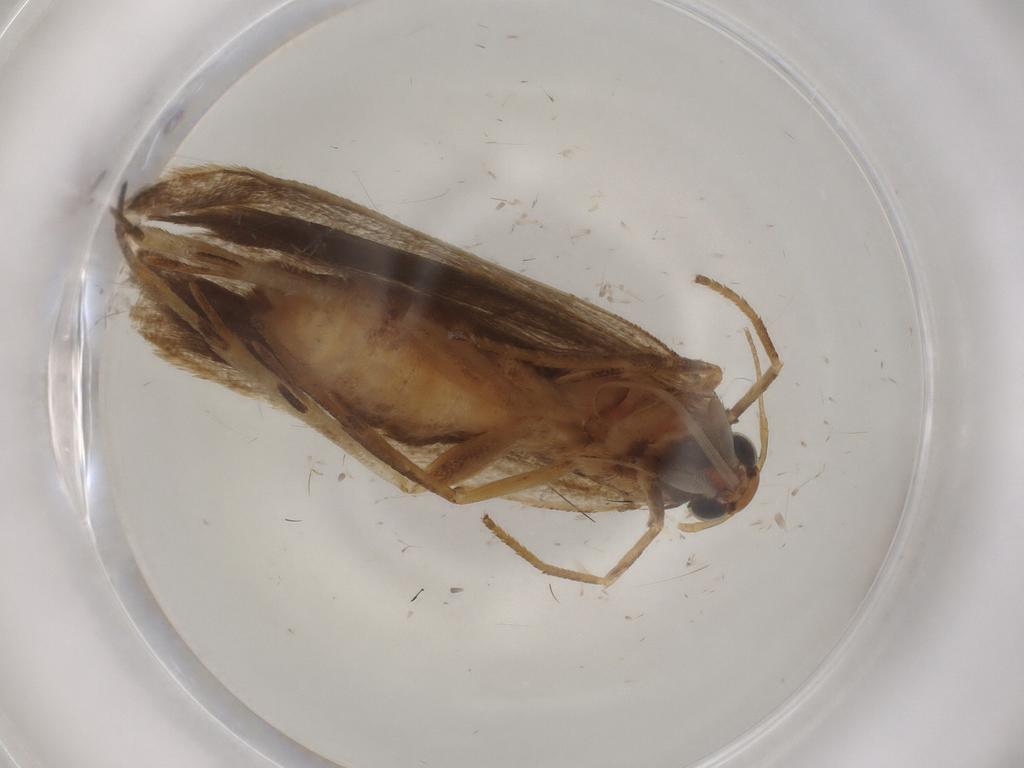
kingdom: Animalia
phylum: Arthropoda
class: Insecta
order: Lepidoptera
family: Gelechiidae
